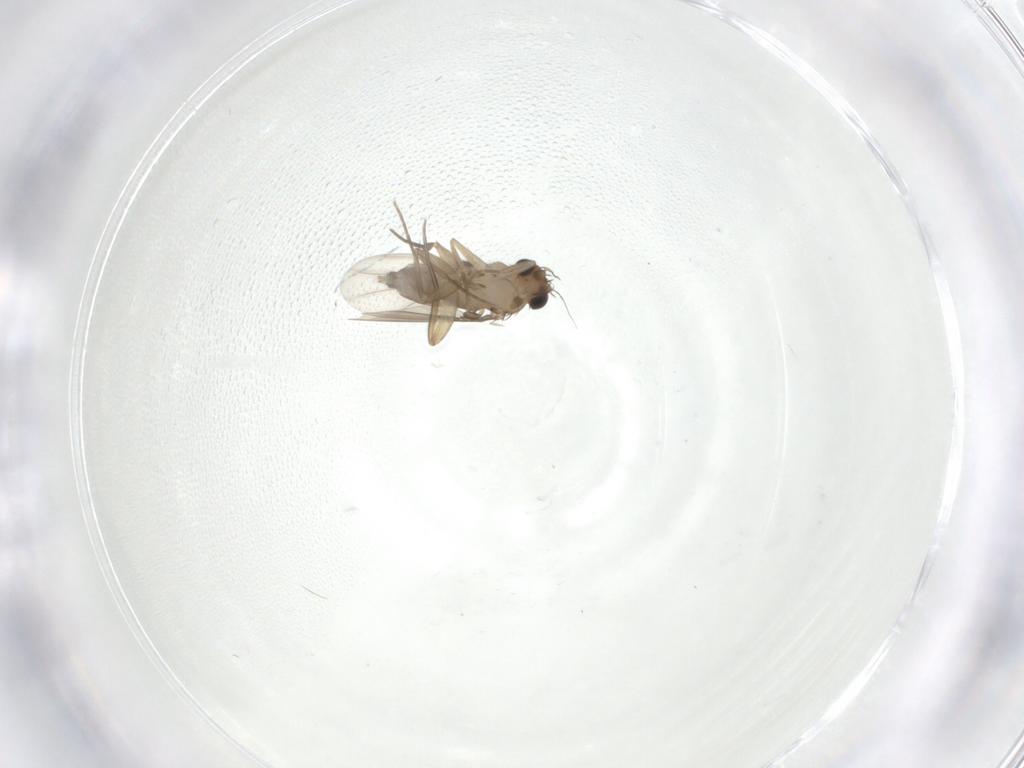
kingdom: Animalia
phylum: Arthropoda
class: Insecta
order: Diptera
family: Phoridae
